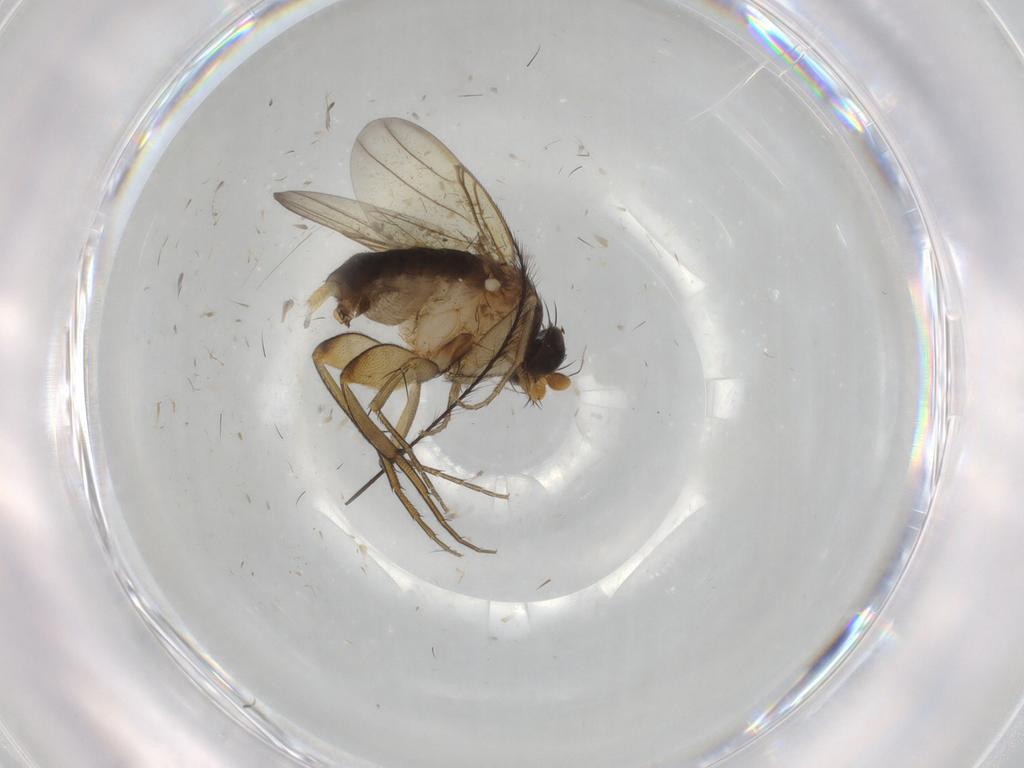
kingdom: Animalia
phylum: Arthropoda
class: Insecta
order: Diptera
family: Phoridae
